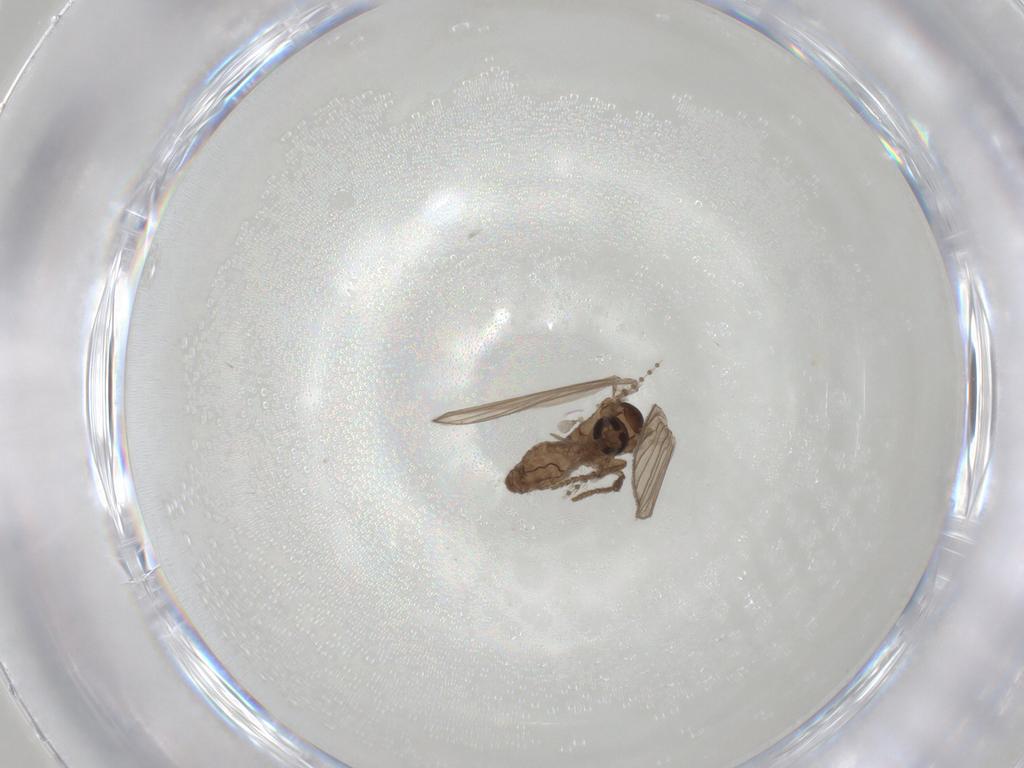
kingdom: Animalia
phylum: Arthropoda
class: Insecta
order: Diptera
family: Psychodidae
